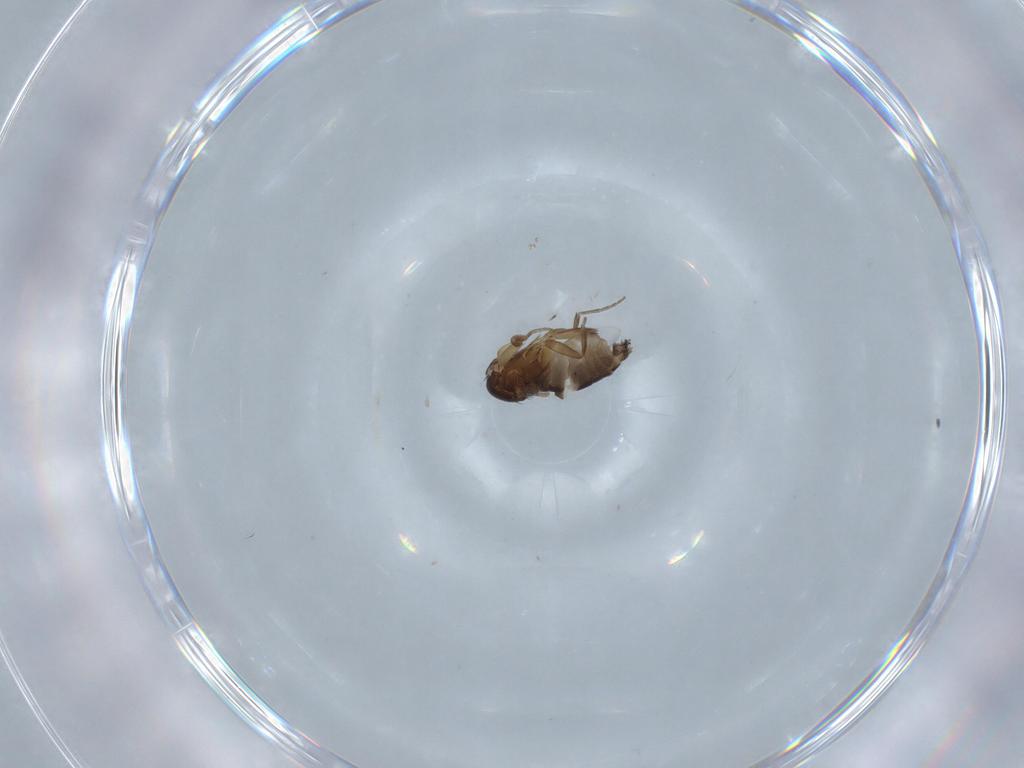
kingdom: Animalia
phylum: Arthropoda
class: Insecta
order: Diptera
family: Phoridae
